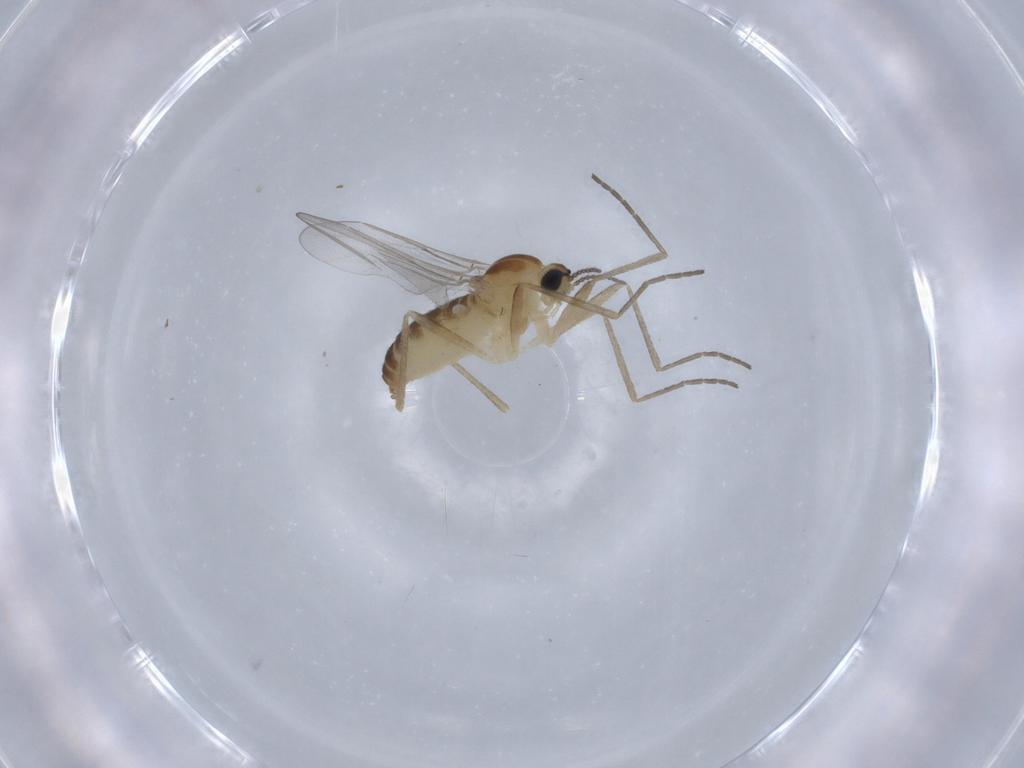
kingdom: Animalia
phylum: Arthropoda
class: Insecta
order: Diptera
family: Cecidomyiidae
